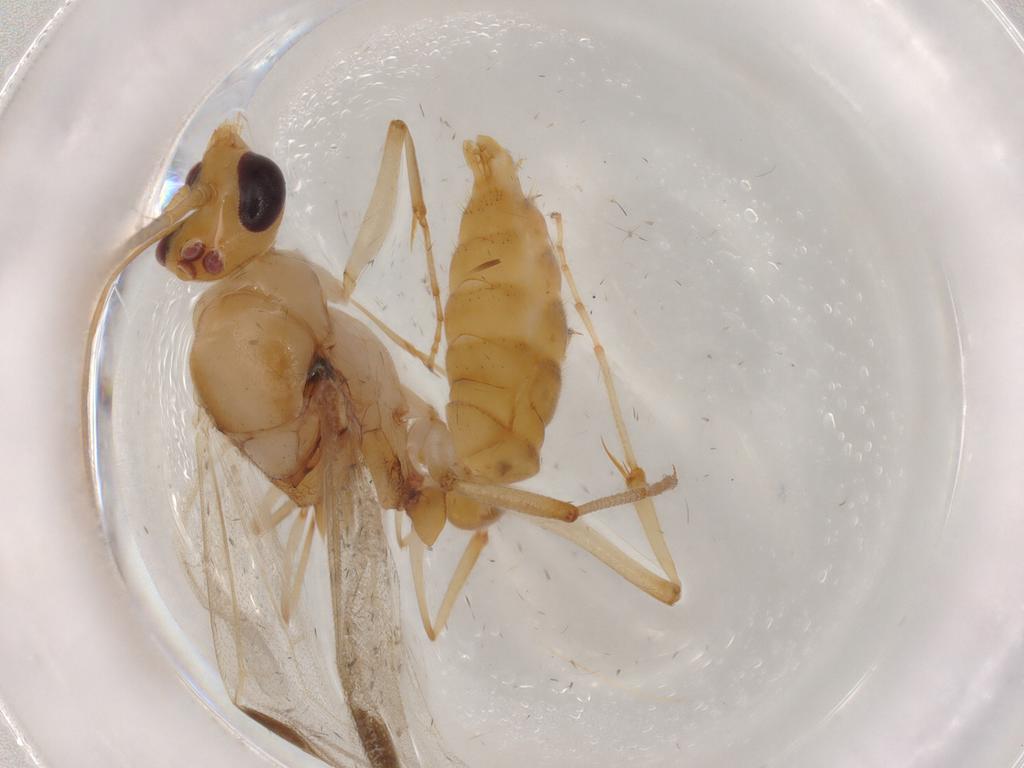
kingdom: Animalia
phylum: Arthropoda
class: Insecta
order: Hymenoptera
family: Formicidae
